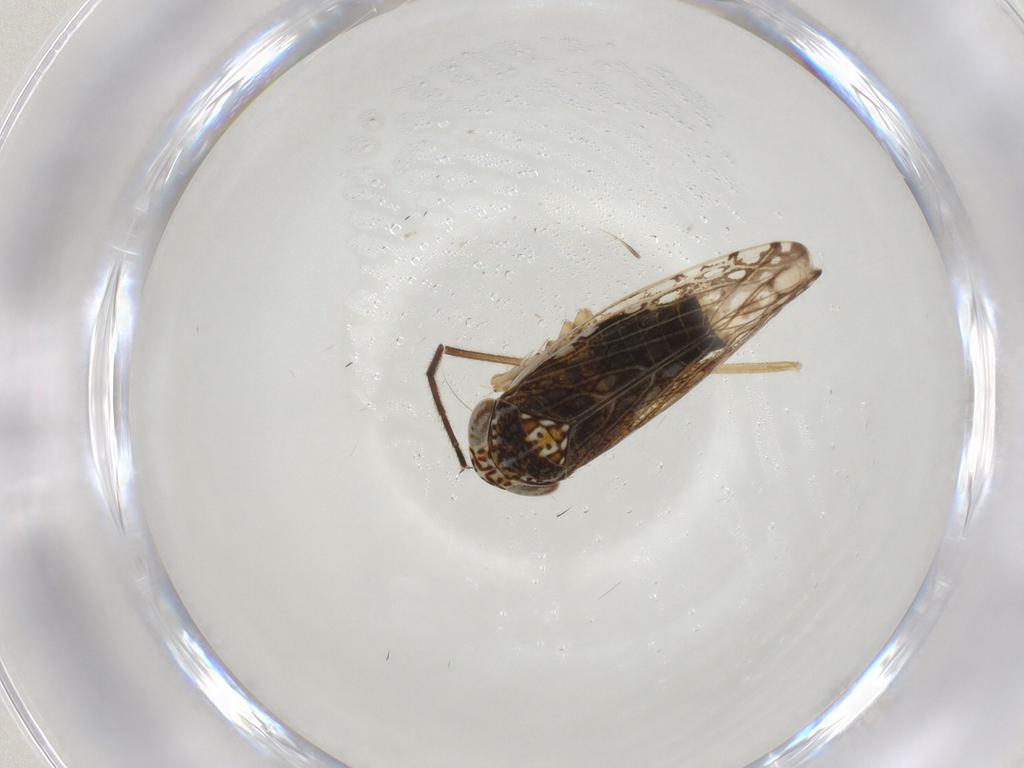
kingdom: Animalia
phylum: Arthropoda
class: Insecta
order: Hemiptera
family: Cicadellidae
